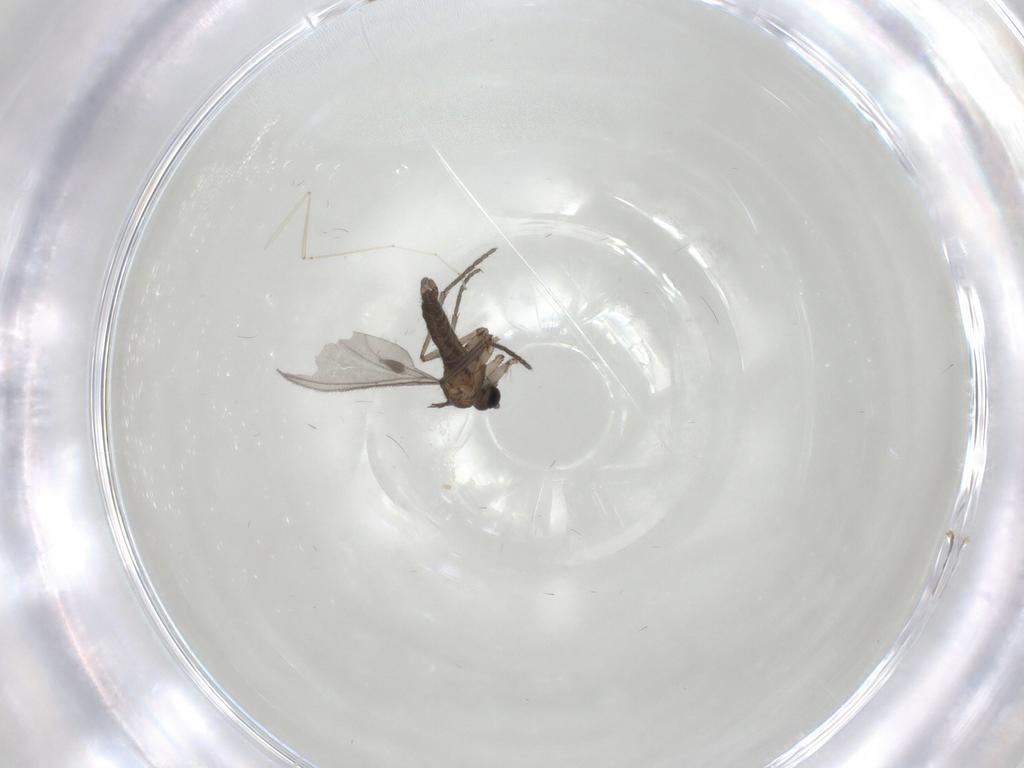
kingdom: Animalia
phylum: Arthropoda
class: Insecta
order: Diptera
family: Sciaridae
